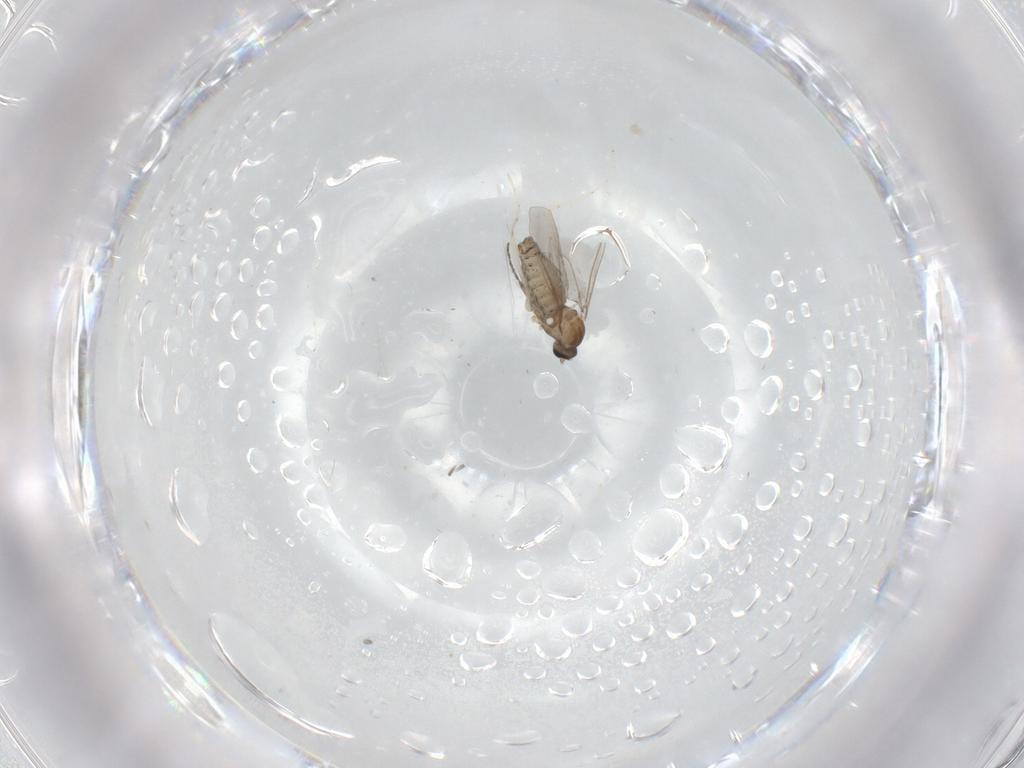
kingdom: Animalia
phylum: Arthropoda
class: Insecta
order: Diptera
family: Cecidomyiidae
